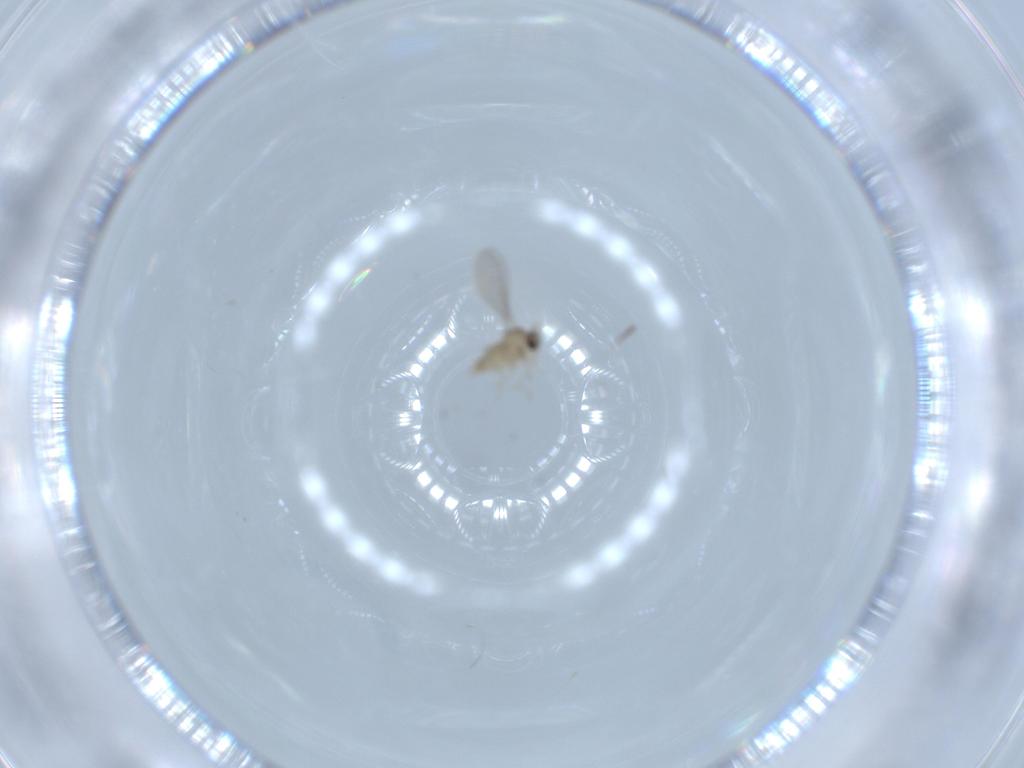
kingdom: Animalia
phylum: Arthropoda
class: Insecta
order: Diptera
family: Cecidomyiidae
